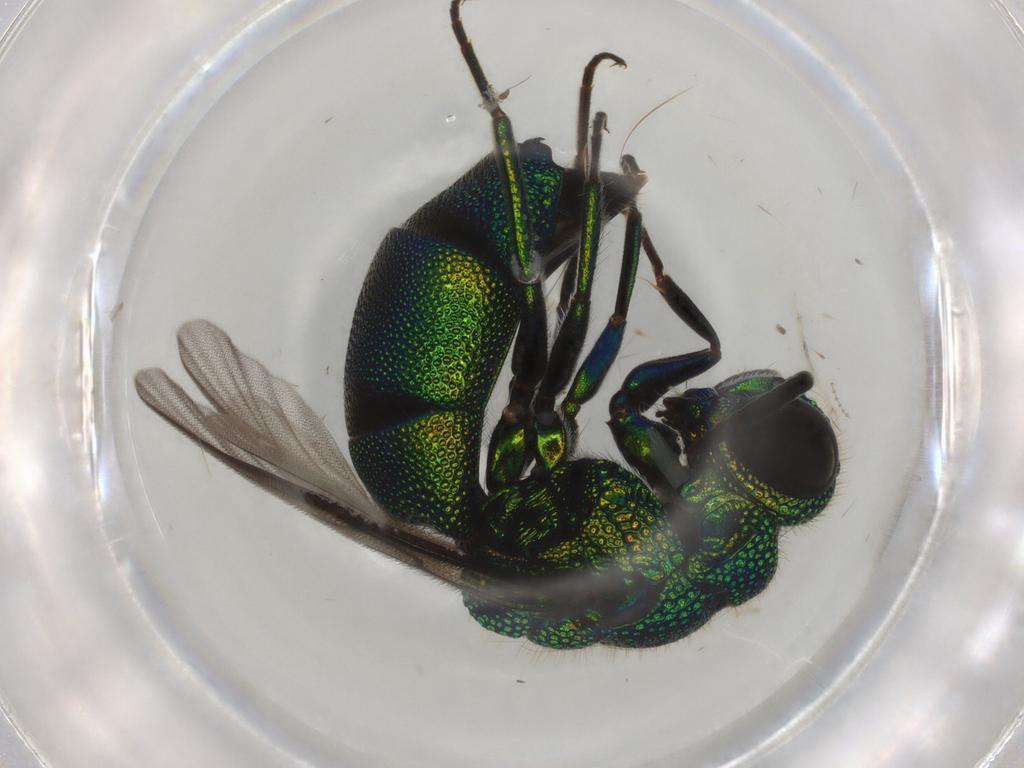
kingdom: Animalia
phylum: Arthropoda
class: Insecta
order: Hymenoptera
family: Chrysididae
